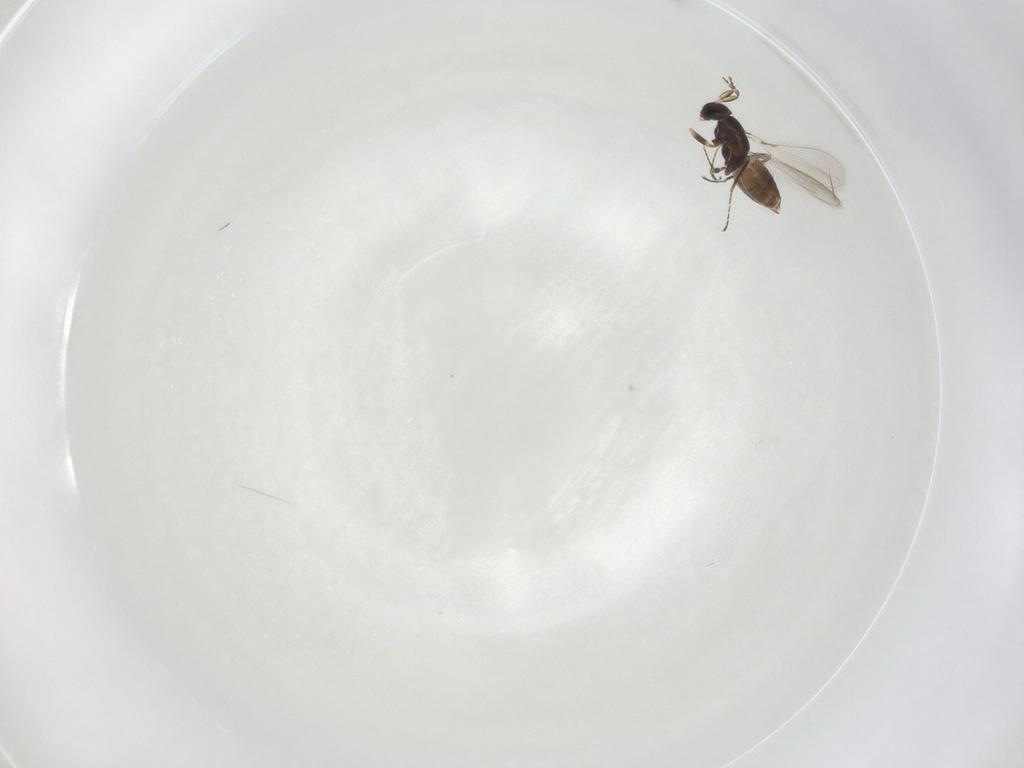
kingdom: Animalia
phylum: Arthropoda
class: Insecta
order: Hymenoptera
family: Mymaridae
